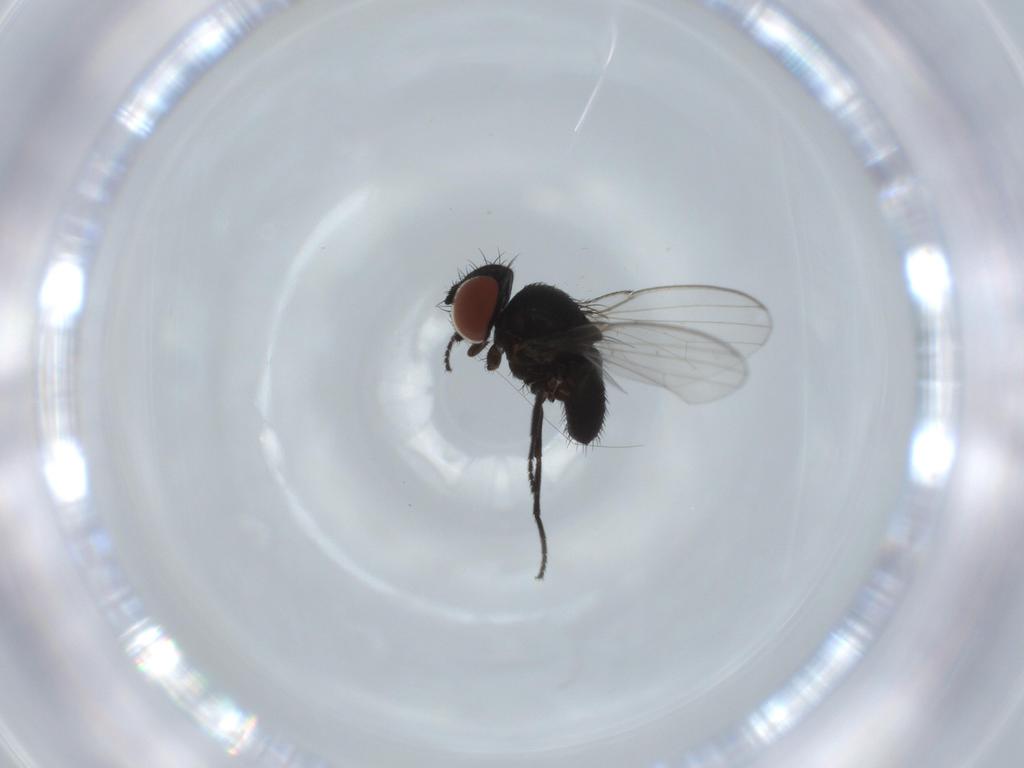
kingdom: Animalia
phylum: Arthropoda
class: Insecta
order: Diptera
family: Milichiidae
